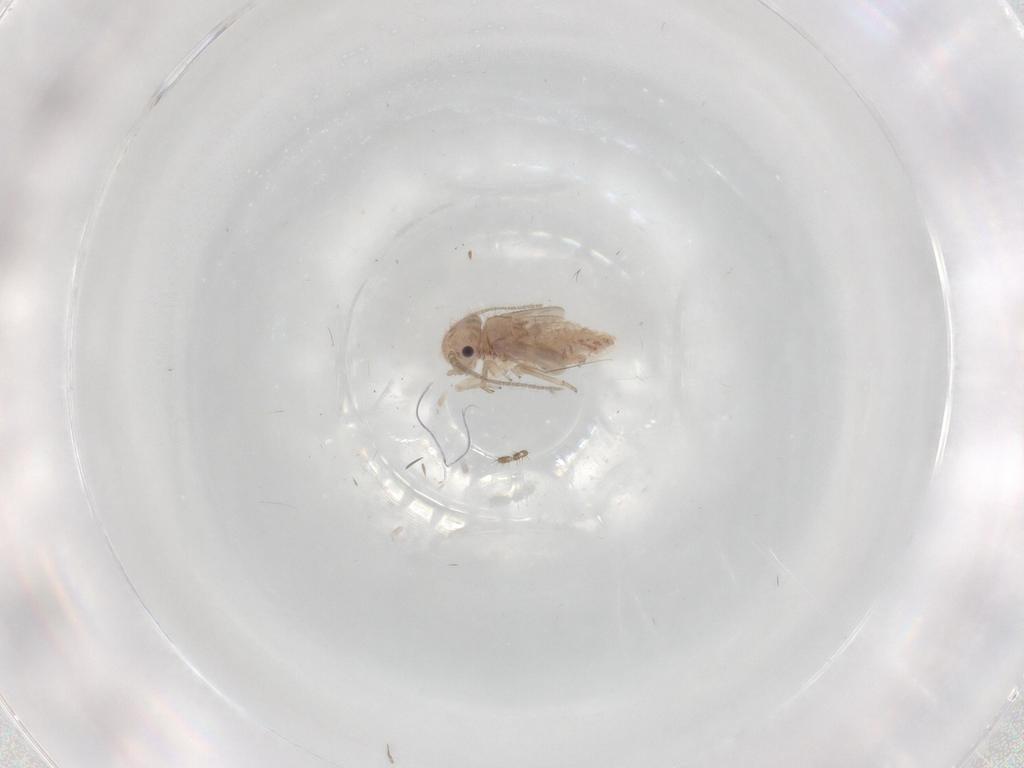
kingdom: Animalia
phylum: Arthropoda
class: Insecta
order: Psocodea
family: Ectopsocidae
